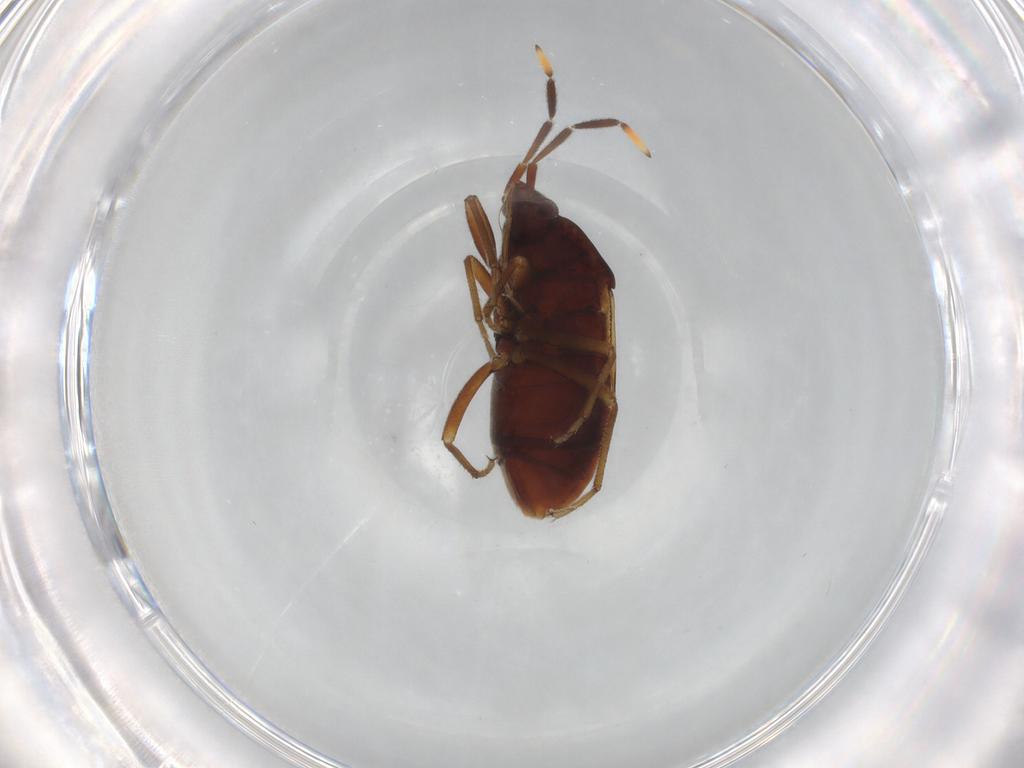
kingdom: Animalia
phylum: Arthropoda
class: Insecta
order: Hemiptera
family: Rhyparochromidae
